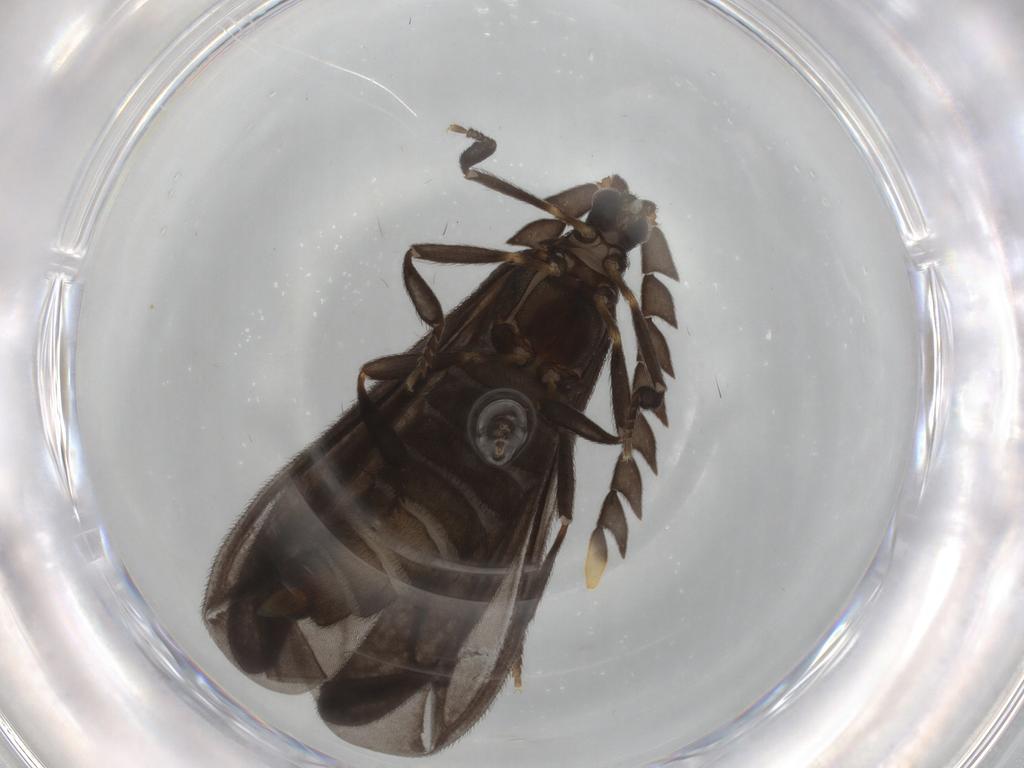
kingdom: Animalia
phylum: Arthropoda
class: Insecta
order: Coleoptera
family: Lycidae
